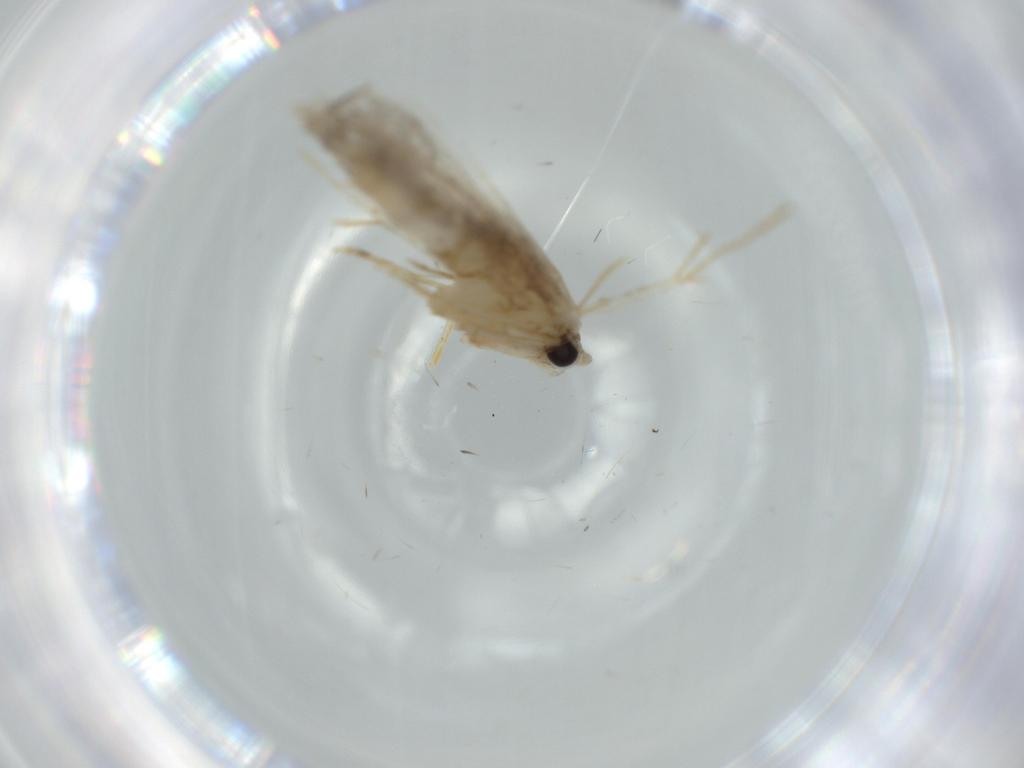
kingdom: Animalia
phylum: Arthropoda
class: Insecta
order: Lepidoptera
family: Tineidae
